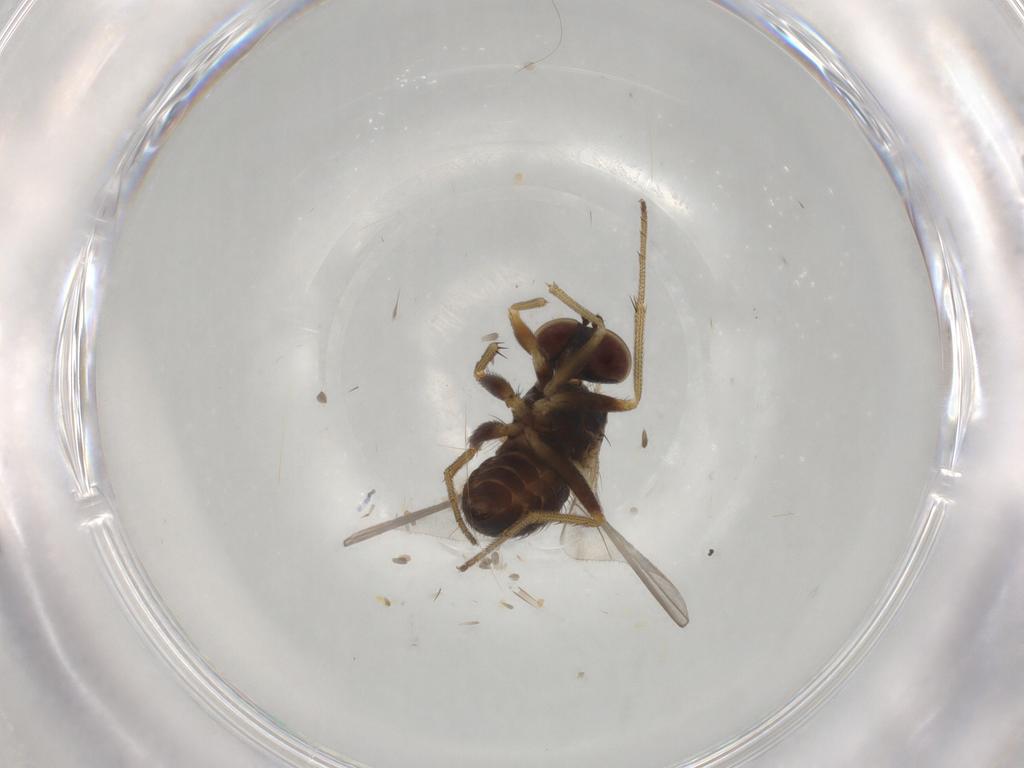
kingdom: Animalia
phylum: Arthropoda
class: Insecta
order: Diptera
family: Dolichopodidae
